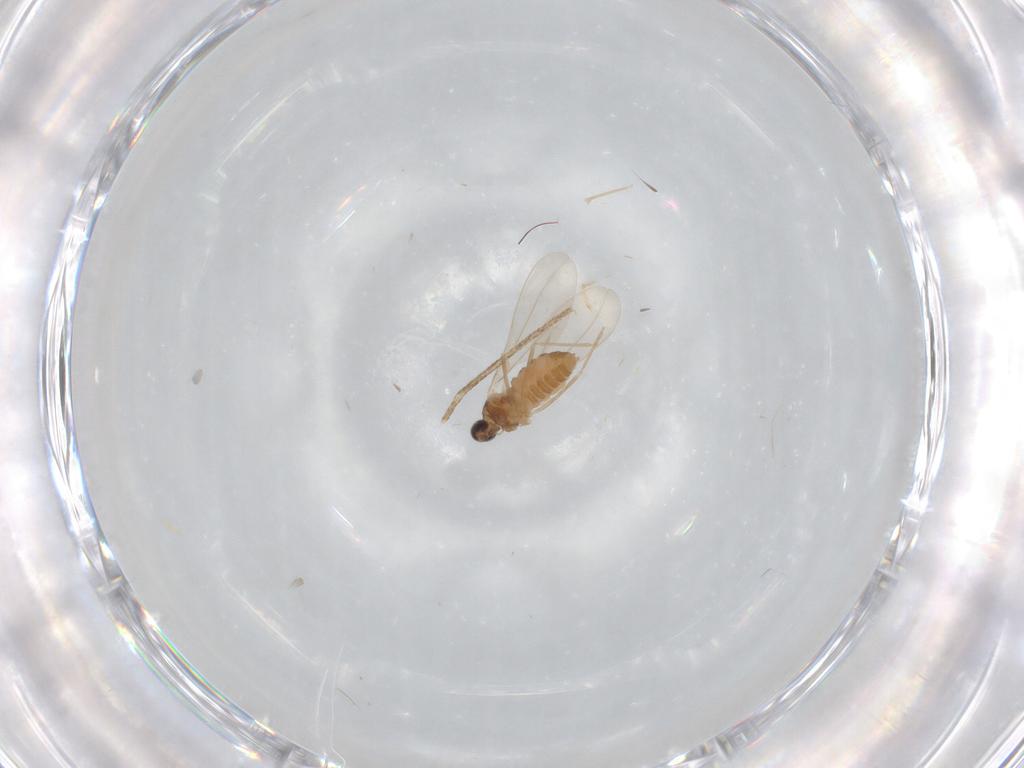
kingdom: Animalia
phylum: Arthropoda
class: Insecta
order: Diptera
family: Cecidomyiidae
